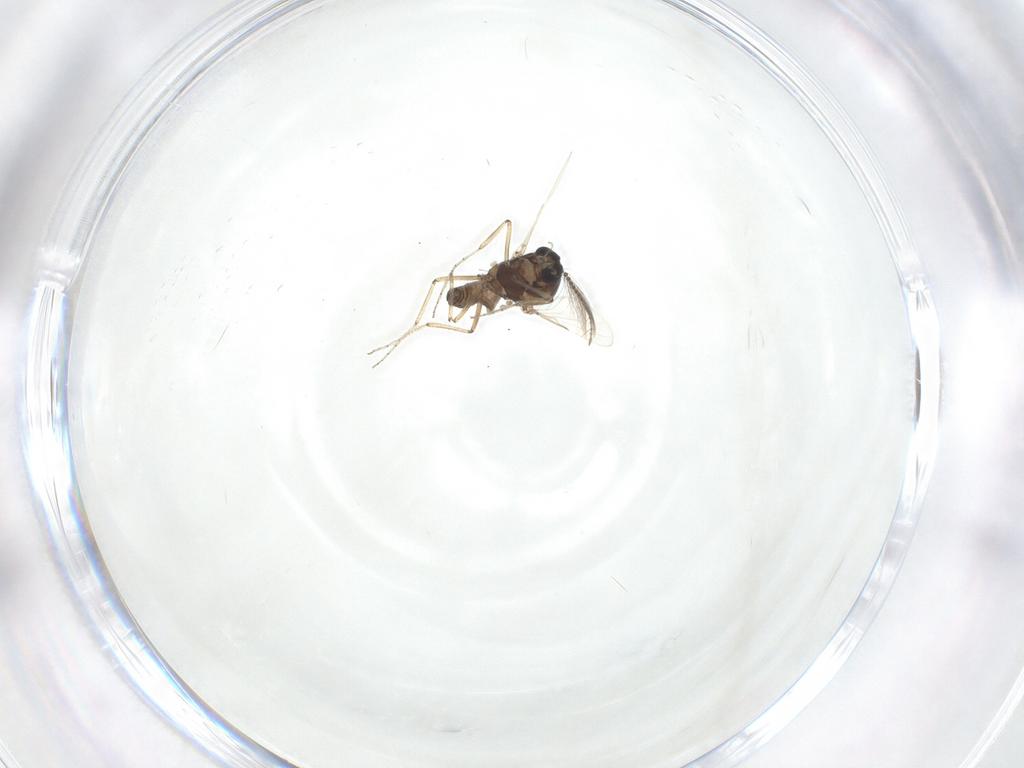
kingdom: Animalia
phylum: Arthropoda
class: Insecta
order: Diptera
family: Ceratopogonidae
